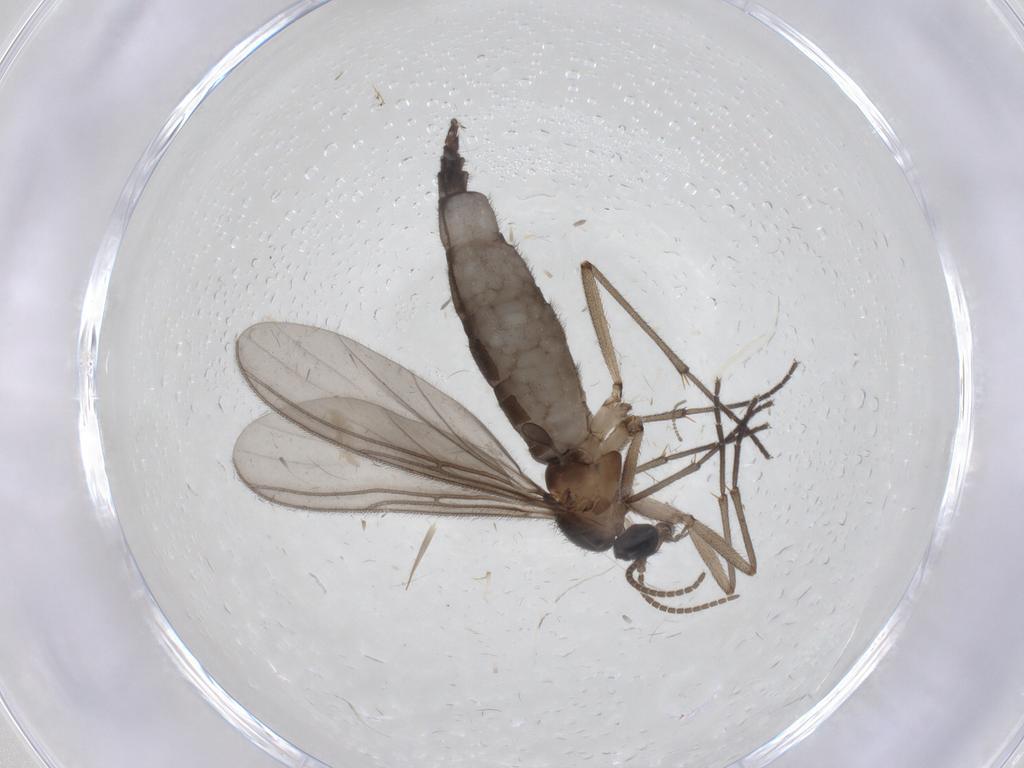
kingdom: Animalia
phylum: Arthropoda
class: Insecta
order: Diptera
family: Cecidomyiidae
